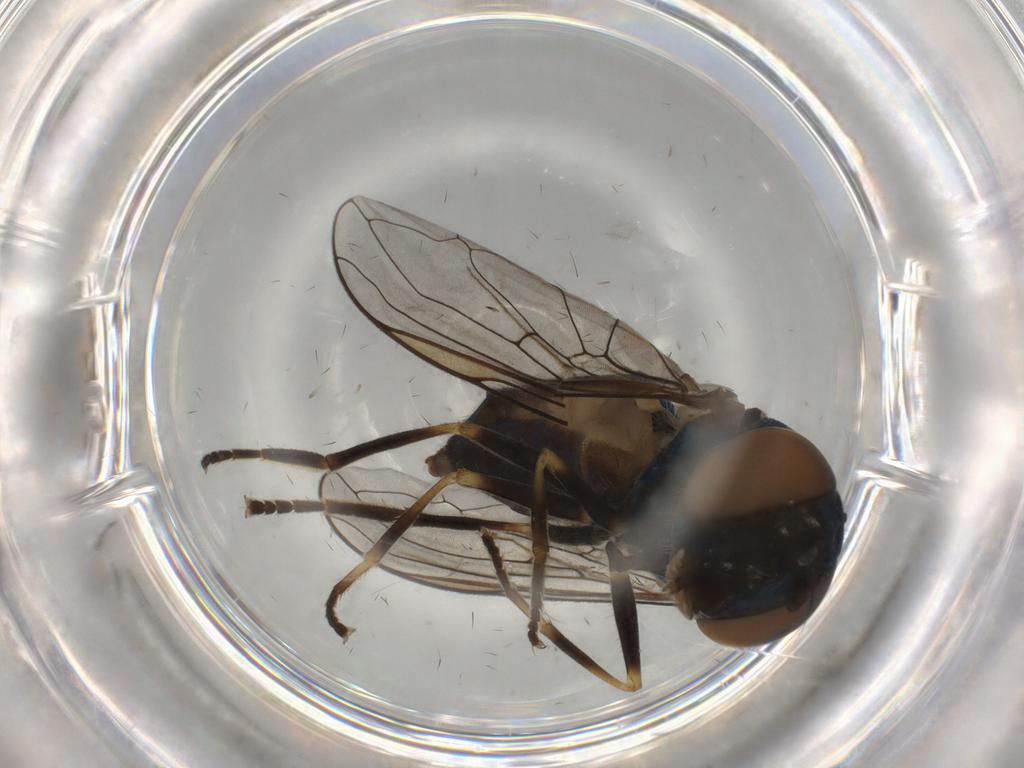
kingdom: Animalia
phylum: Arthropoda
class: Insecta
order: Diptera
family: Syrphidae
